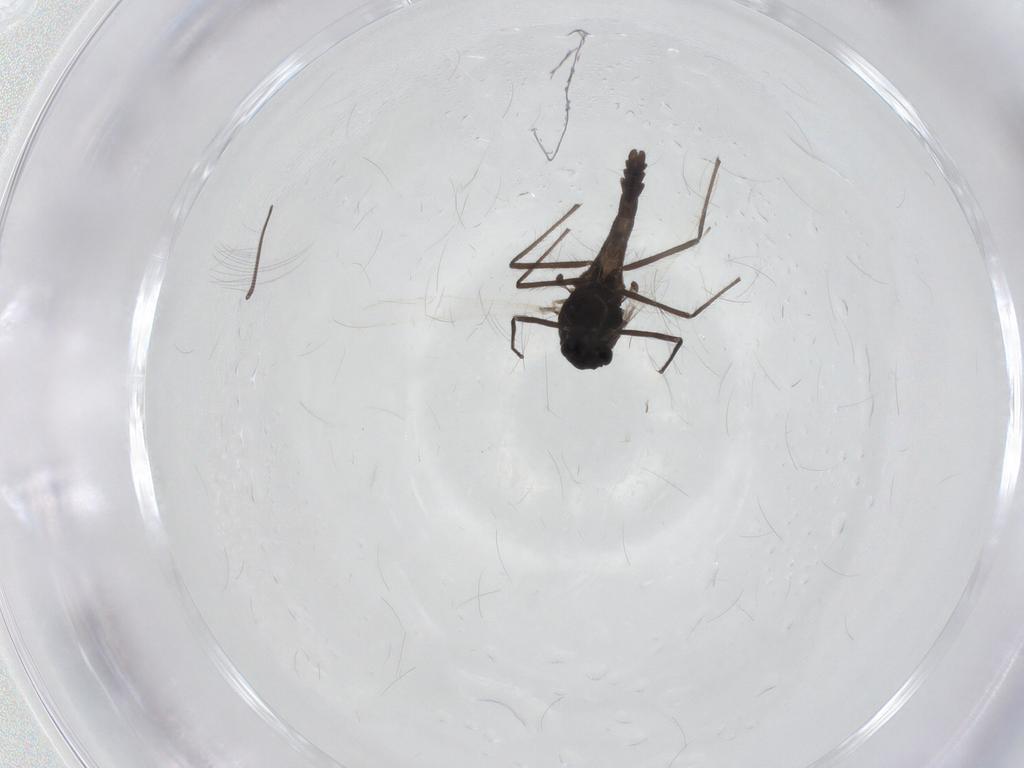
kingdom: Animalia
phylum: Arthropoda
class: Insecta
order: Diptera
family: Chironomidae
